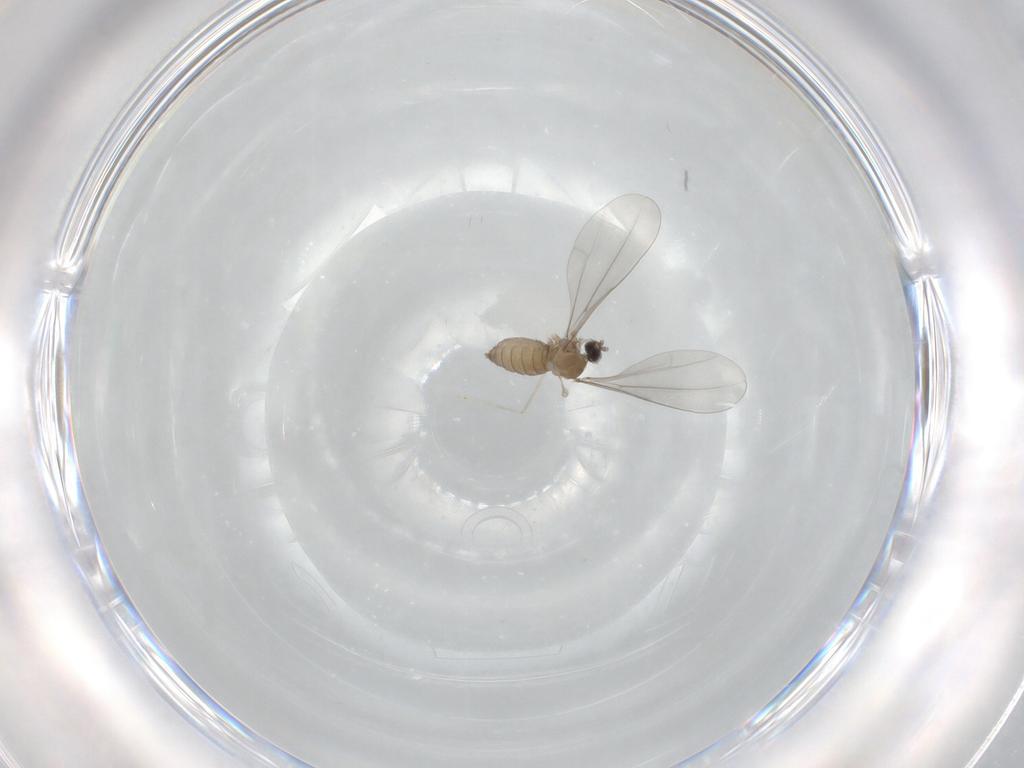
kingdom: Animalia
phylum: Arthropoda
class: Insecta
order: Diptera
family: Cecidomyiidae
